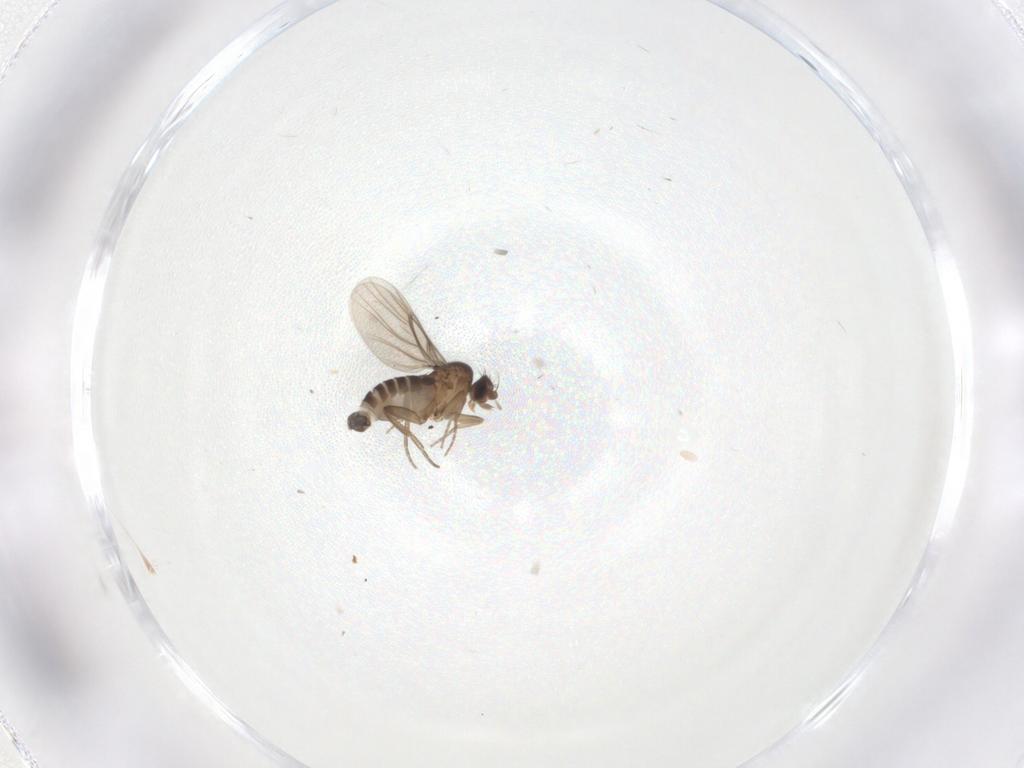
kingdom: Animalia
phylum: Arthropoda
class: Insecta
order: Diptera
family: Phoridae
